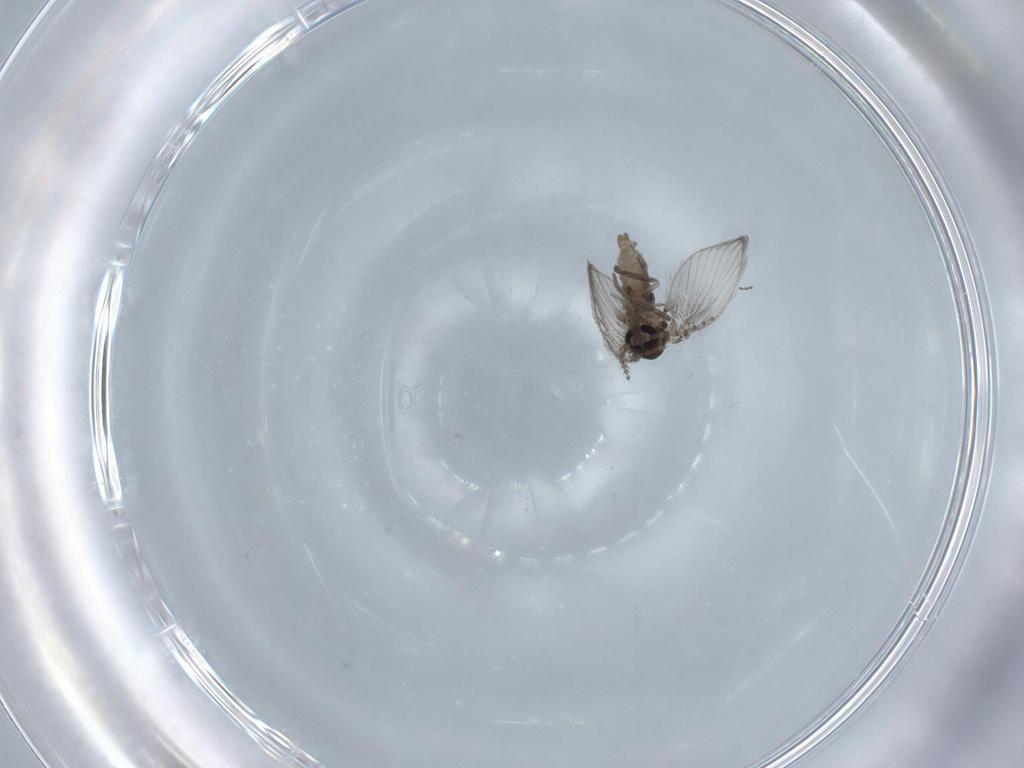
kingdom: Animalia
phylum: Arthropoda
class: Insecta
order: Diptera
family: Psychodidae
